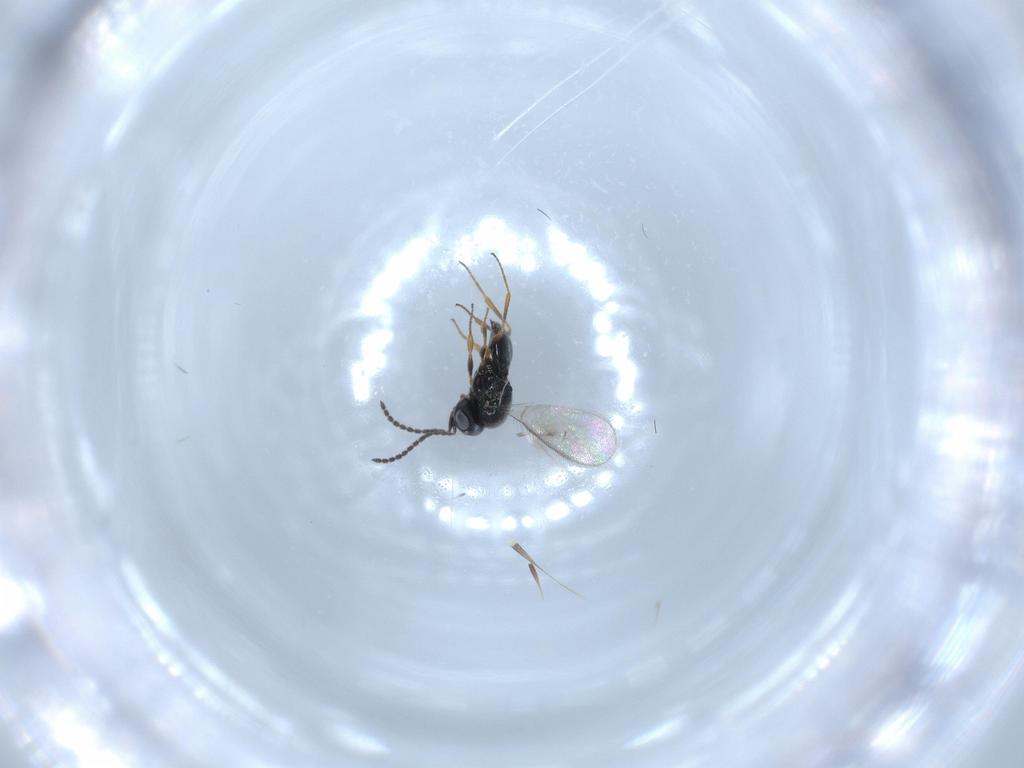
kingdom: Animalia
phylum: Arthropoda
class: Insecta
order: Hymenoptera
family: Scelionidae
